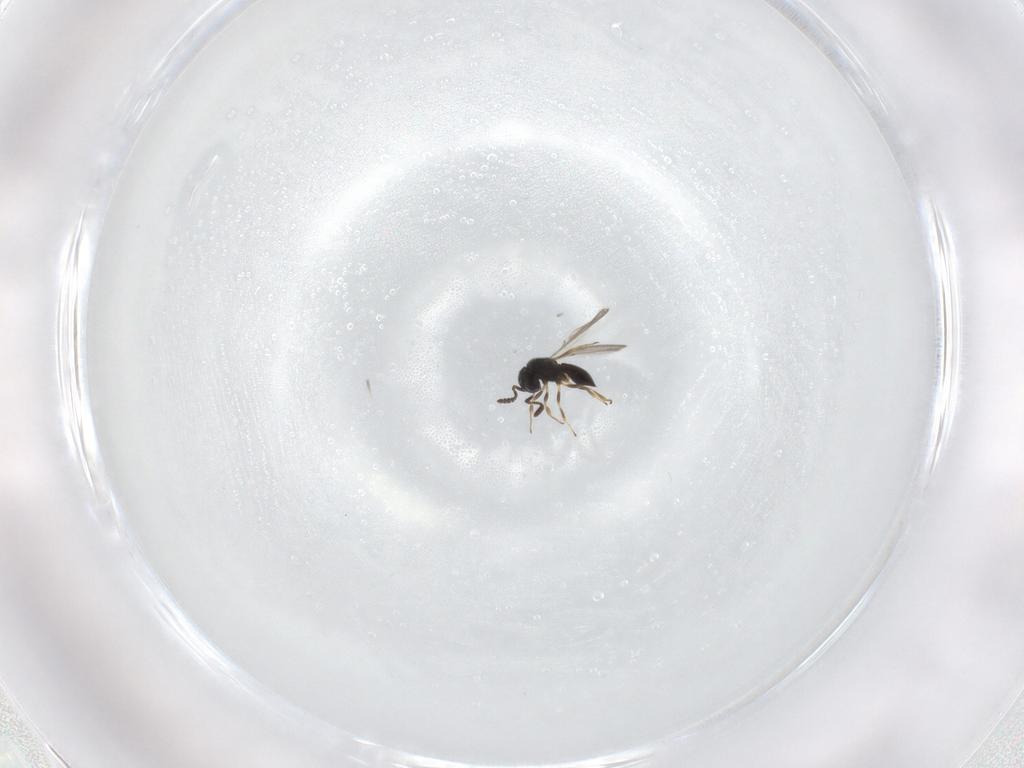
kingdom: Animalia
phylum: Arthropoda
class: Insecta
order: Hymenoptera
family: Scelionidae
